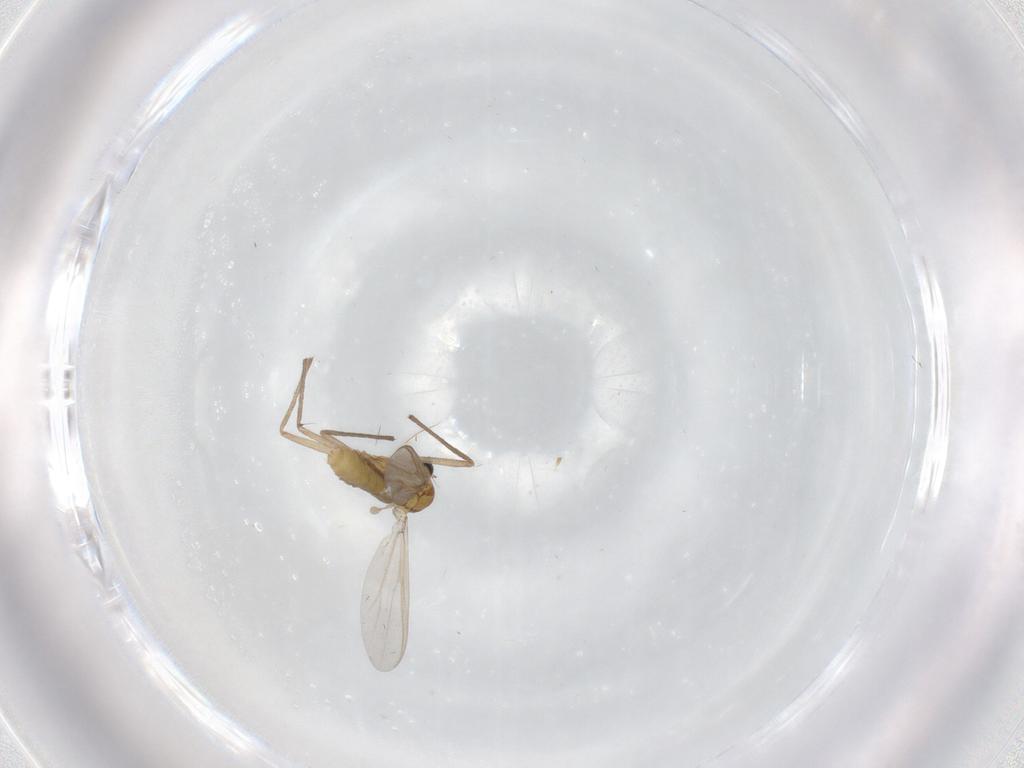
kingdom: Animalia
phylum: Arthropoda
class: Insecta
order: Diptera
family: Chironomidae
